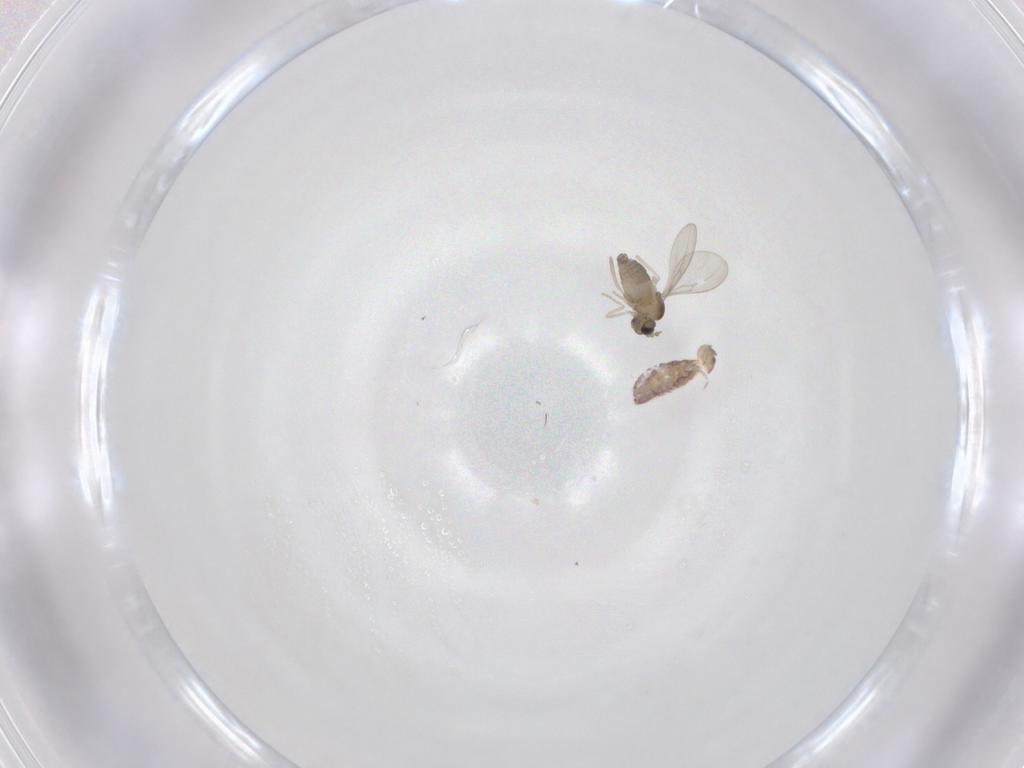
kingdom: Animalia
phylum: Arthropoda
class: Insecta
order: Diptera
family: Cecidomyiidae
